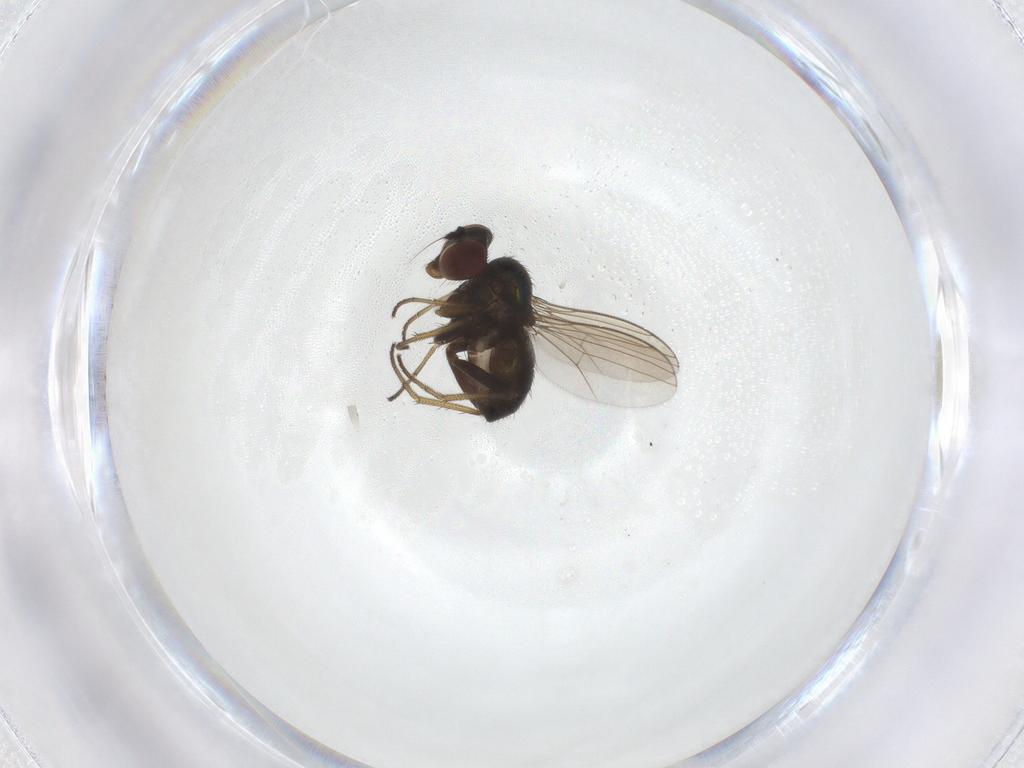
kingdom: Animalia
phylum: Arthropoda
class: Insecta
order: Diptera
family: Dolichopodidae
